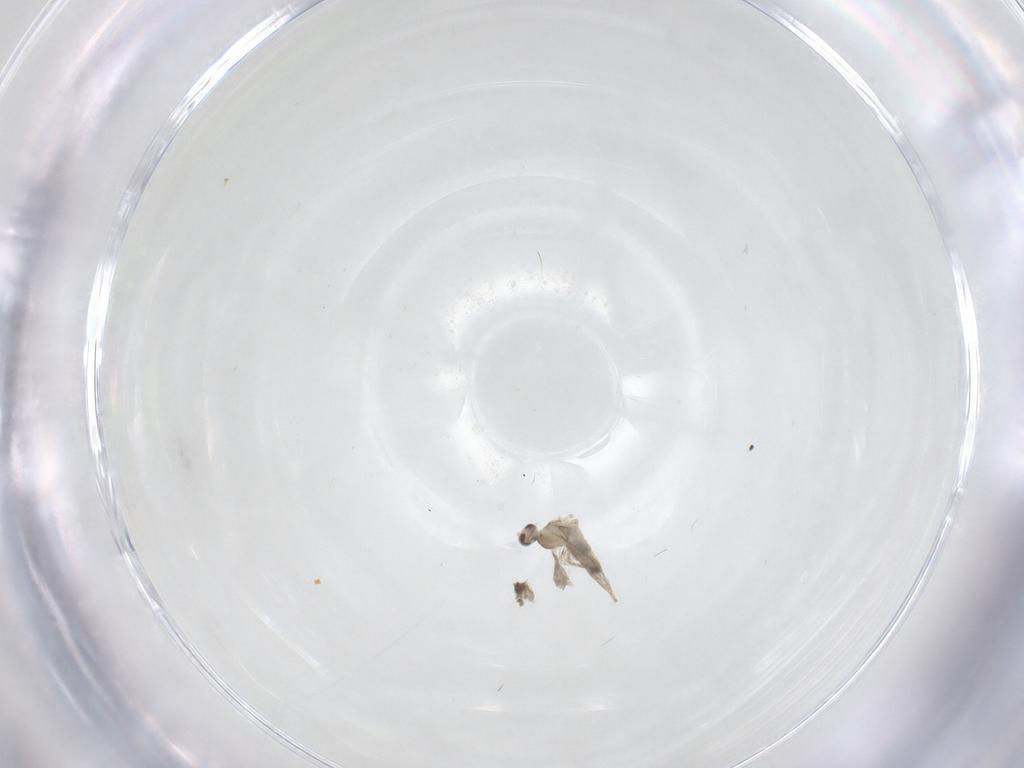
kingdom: Animalia
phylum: Arthropoda
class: Insecta
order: Diptera
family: Cecidomyiidae
